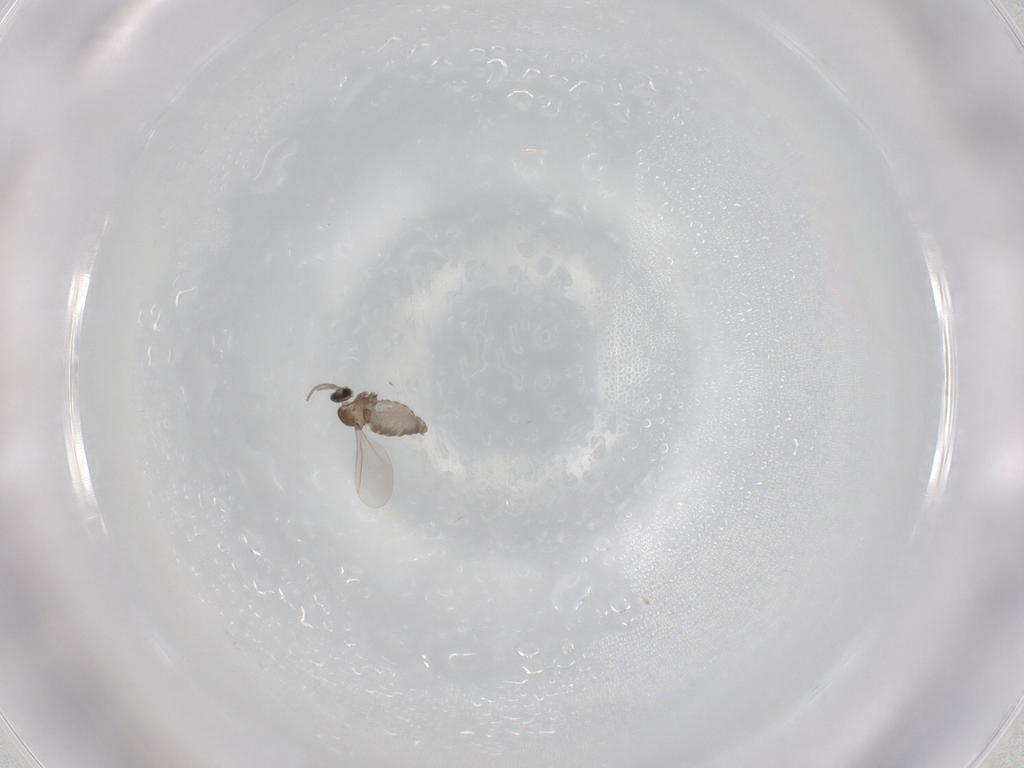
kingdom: Animalia
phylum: Arthropoda
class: Insecta
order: Diptera
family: Cecidomyiidae
